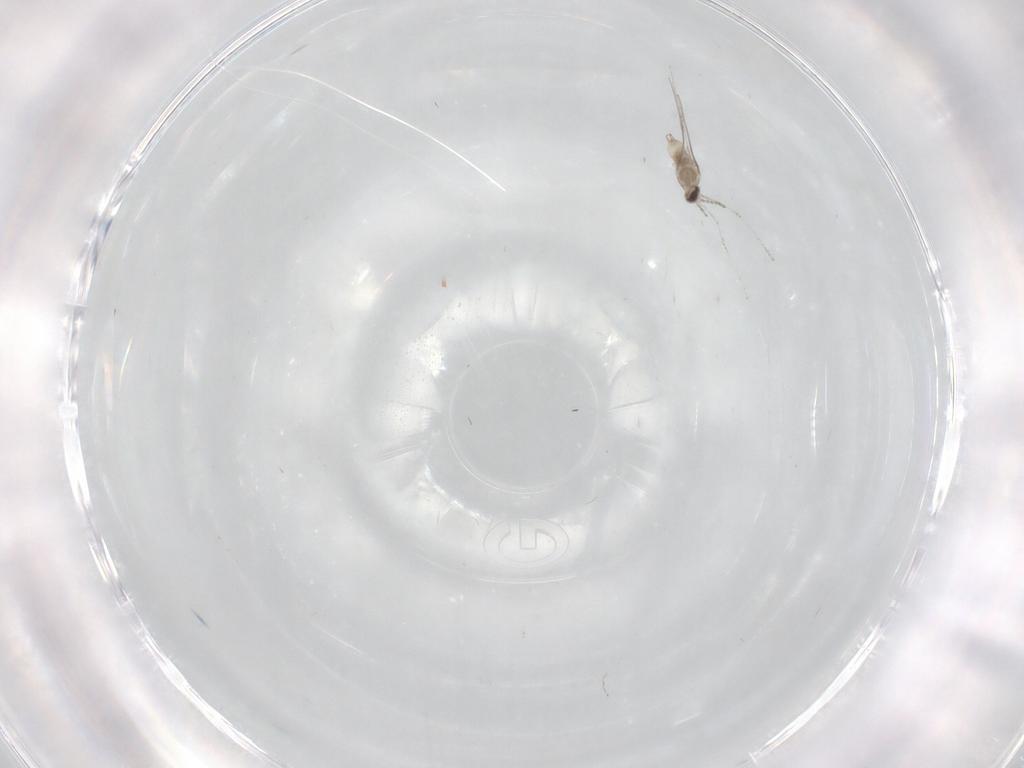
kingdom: Animalia
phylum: Arthropoda
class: Insecta
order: Diptera
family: Cecidomyiidae
